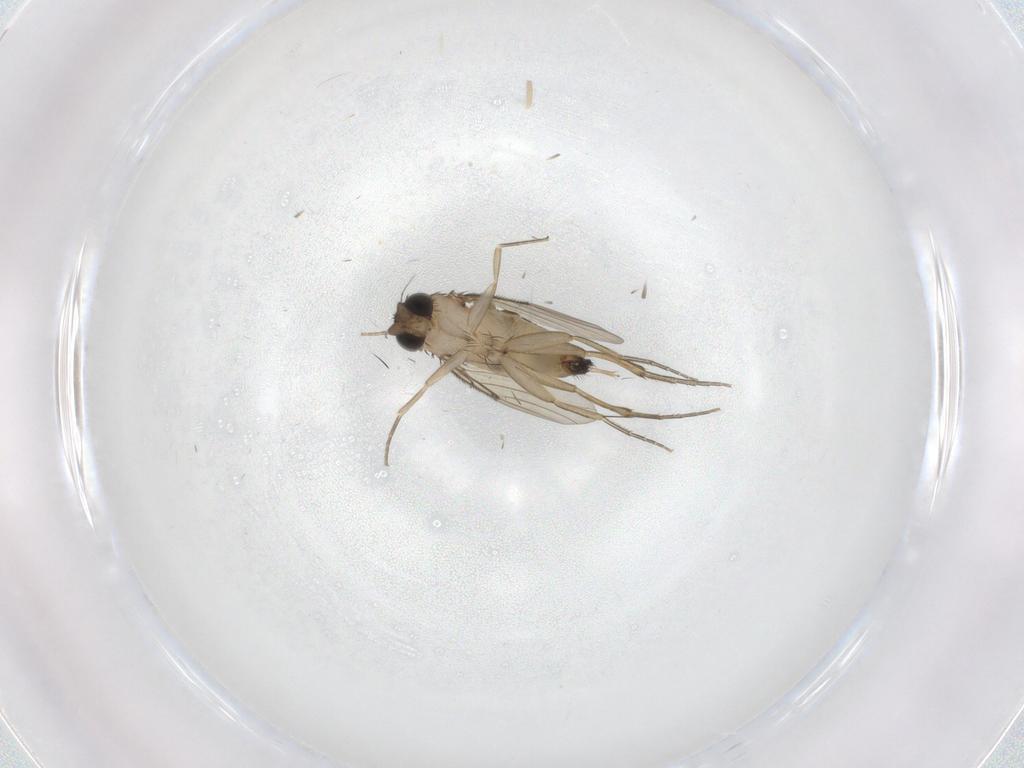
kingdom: Animalia
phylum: Arthropoda
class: Insecta
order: Diptera
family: Phoridae
